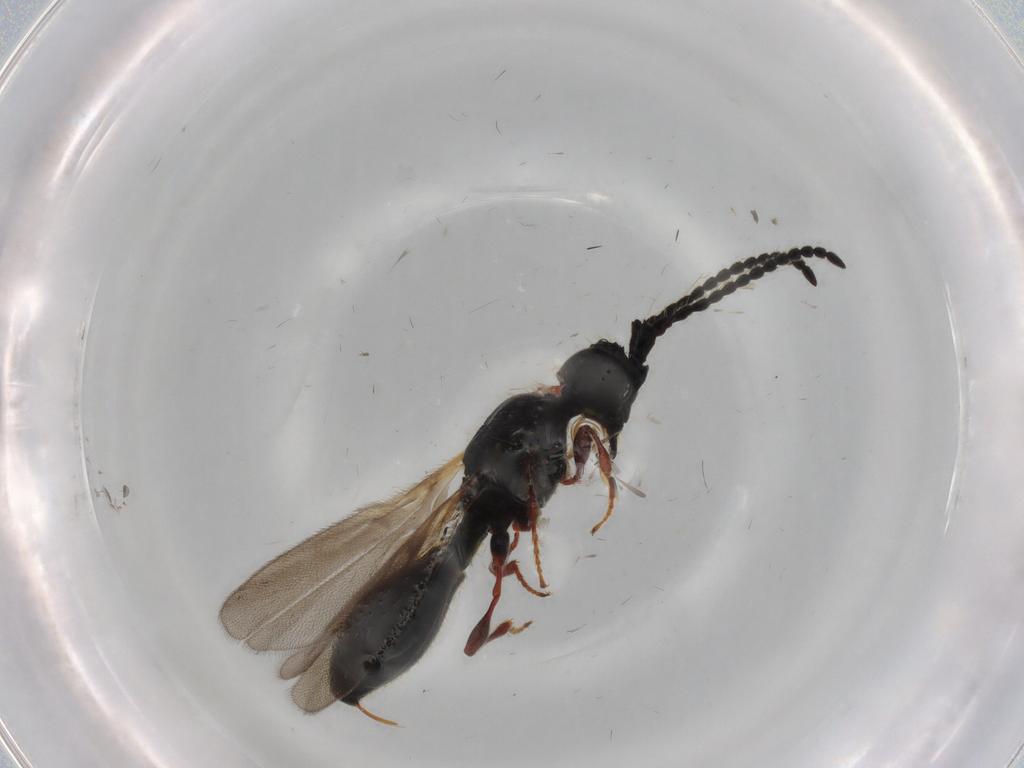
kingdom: Animalia
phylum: Arthropoda
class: Insecta
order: Hymenoptera
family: Diapriidae
